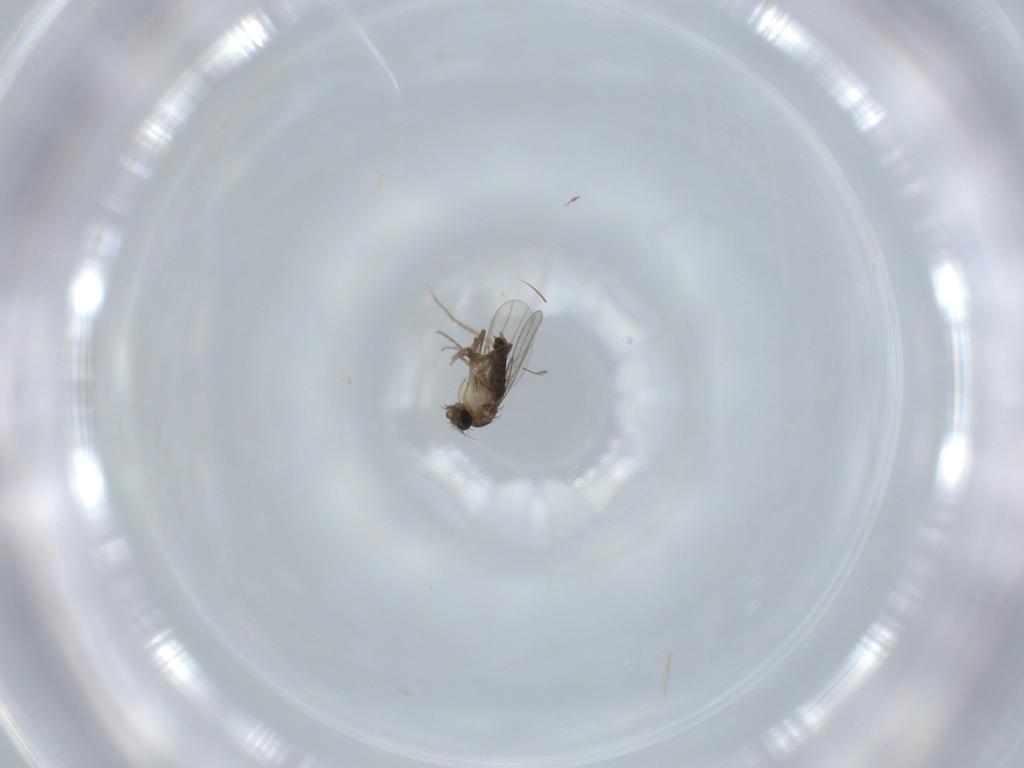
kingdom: Animalia
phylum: Arthropoda
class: Insecta
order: Diptera
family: Phoridae
